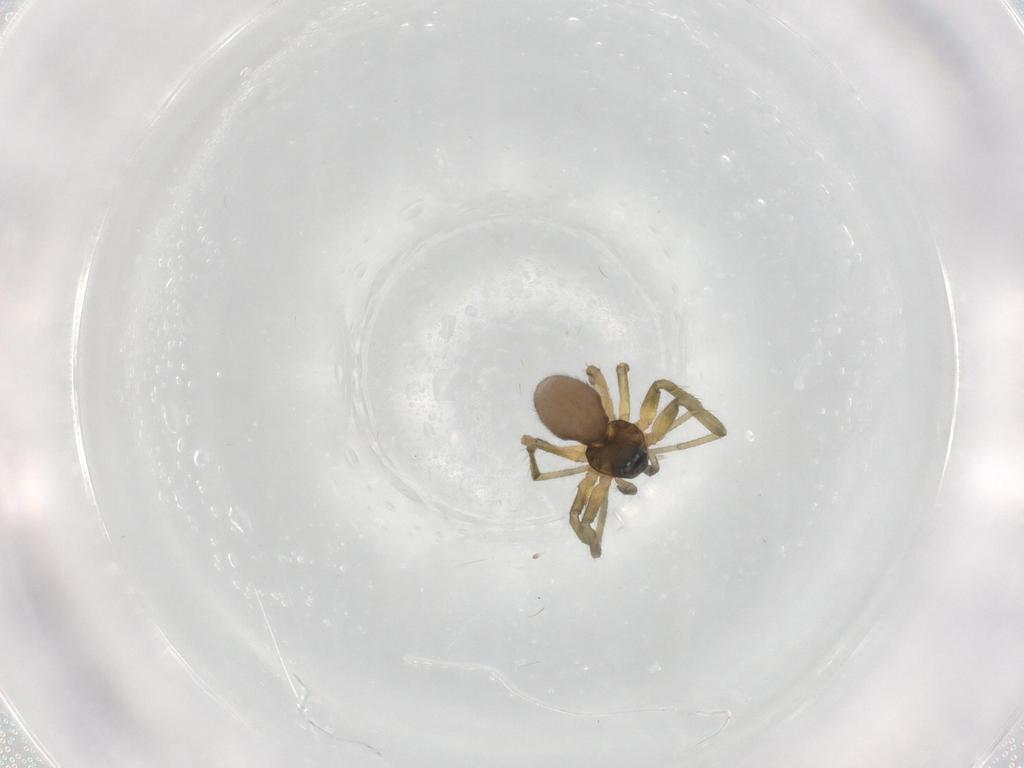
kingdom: Animalia
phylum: Arthropoda
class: Arachnida
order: Araneae
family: Linyphiidae
